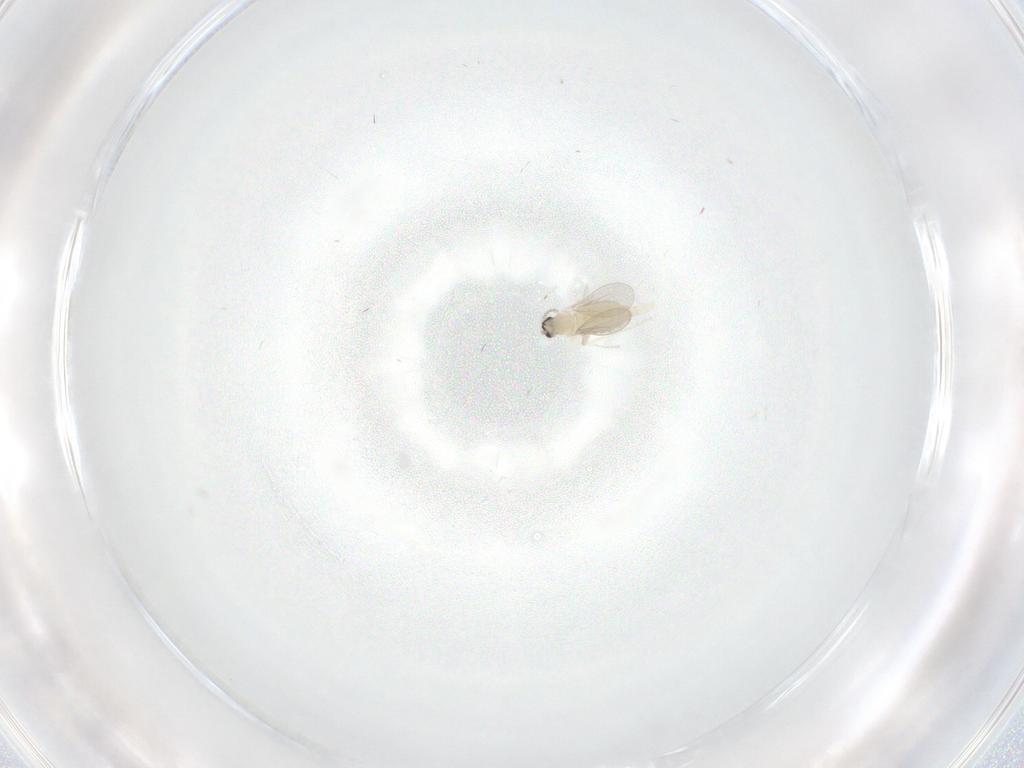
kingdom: Animalia
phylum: Arthropoda
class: Insecta
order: Diptera
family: Cecidomyiidae
